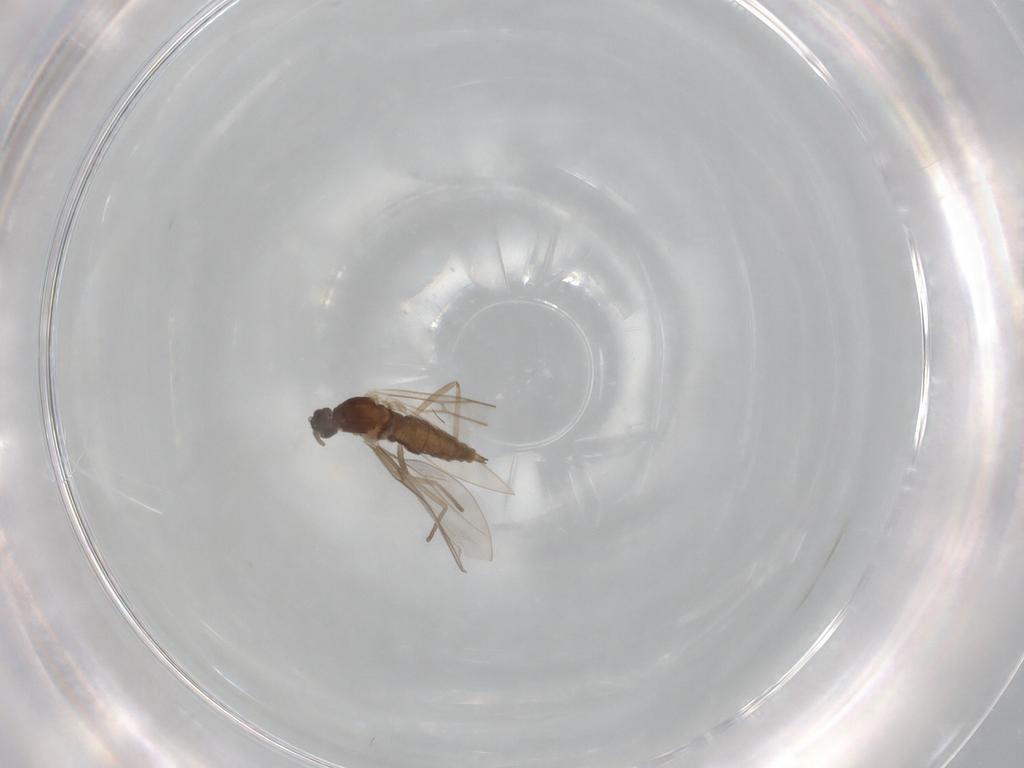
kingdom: Animalia
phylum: Arthropoda
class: Insecta
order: Diptera
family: Cecidomyiidae
